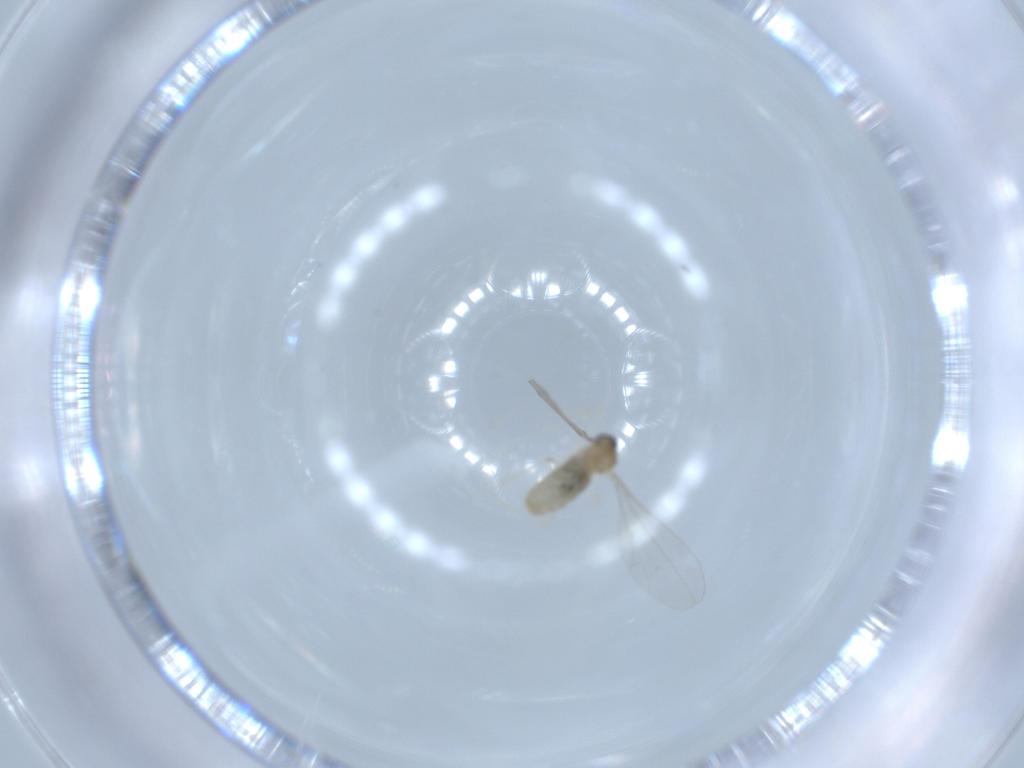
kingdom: Animalia
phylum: Arthropoda
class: Insecta
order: Diptera
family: Cecidomyiidae
